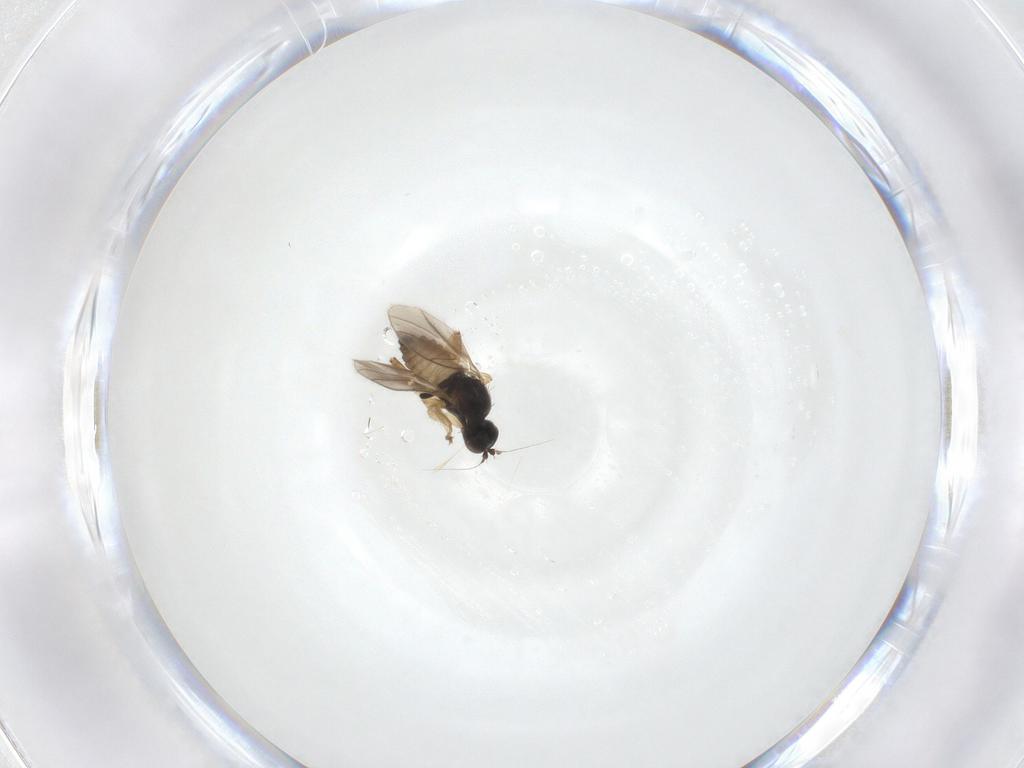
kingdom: Animalia
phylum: Arthropoda
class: Insecta
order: Diptera
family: Hybotidae
